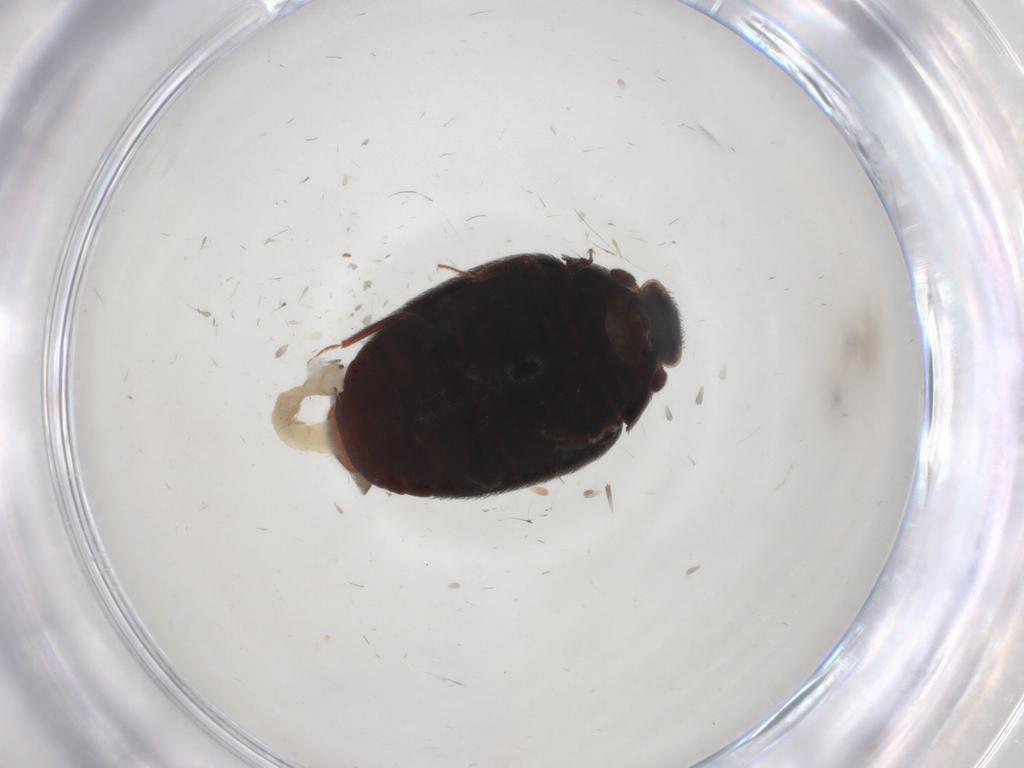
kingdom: Animalia
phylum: Arthropoda
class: Insecta
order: Coleoptera
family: Dermestidae
